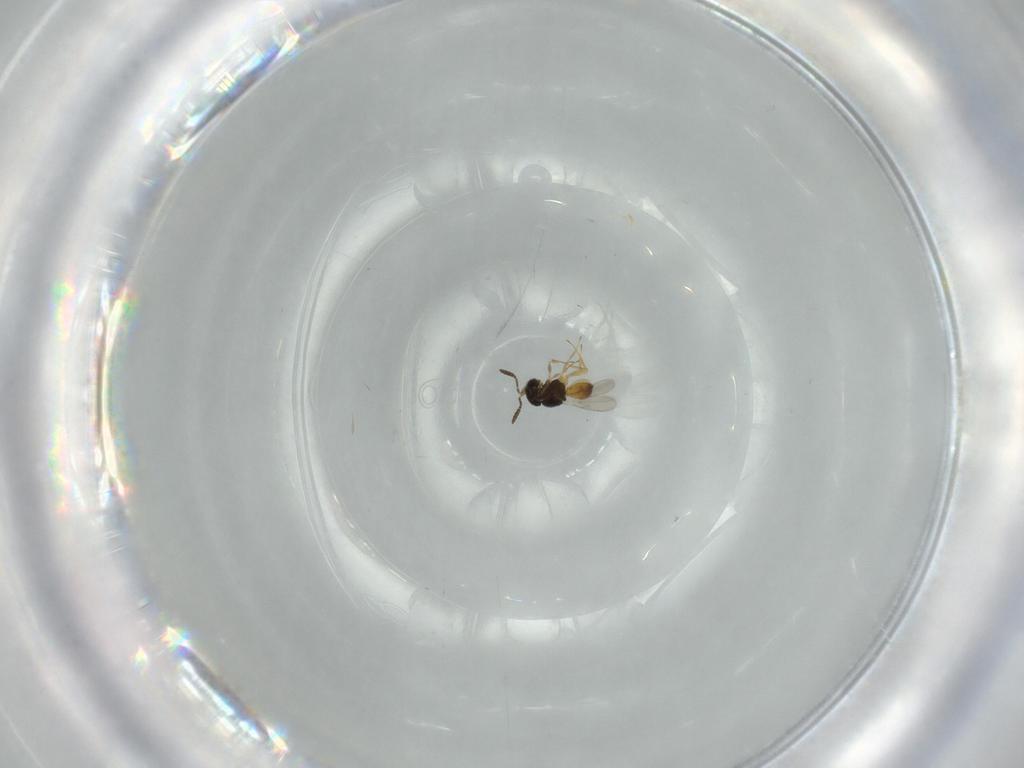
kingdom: Animalia
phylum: Arthropoda
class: Insecta
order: Hymenoptera
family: Scelionidae
